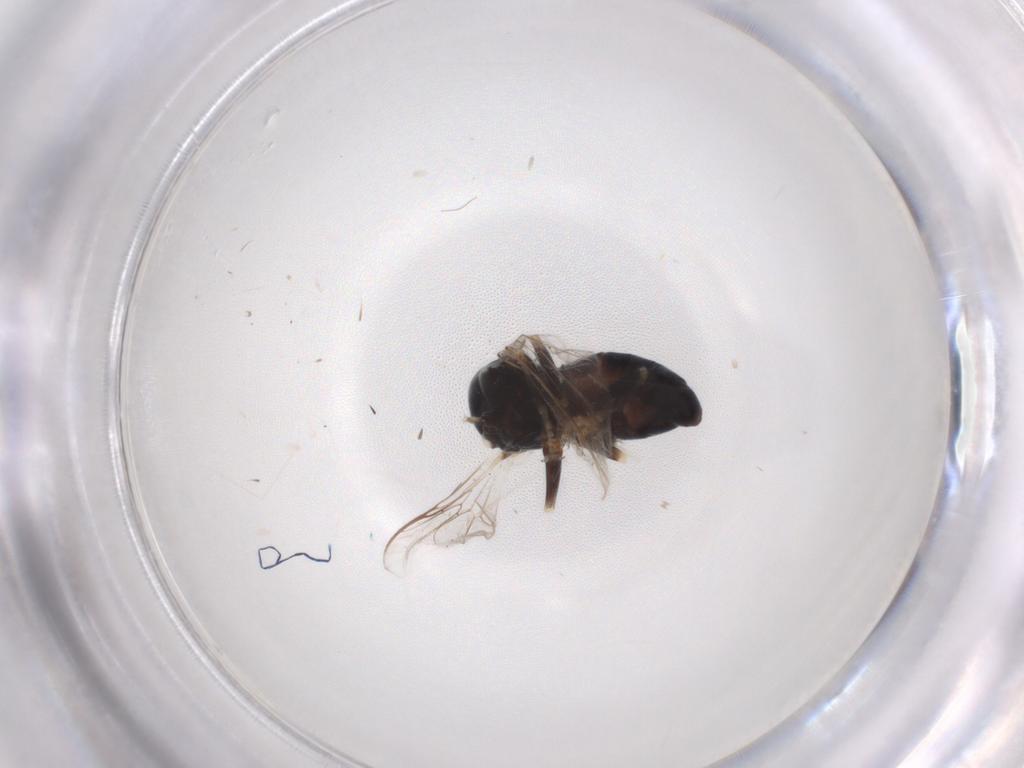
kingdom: Animalia
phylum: Arthropoda
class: Insecta
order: Diptera
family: Pipunculidae
